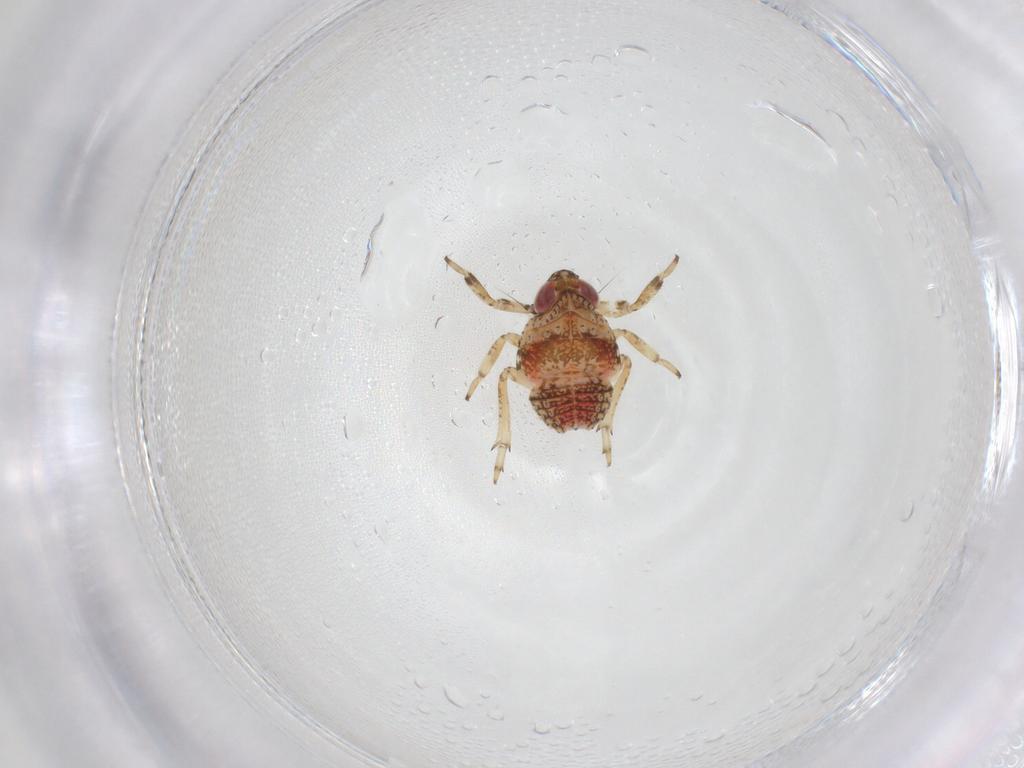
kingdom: Animalia
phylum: Arthropoda
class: Insecta
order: Hemiptera
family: Issidae
